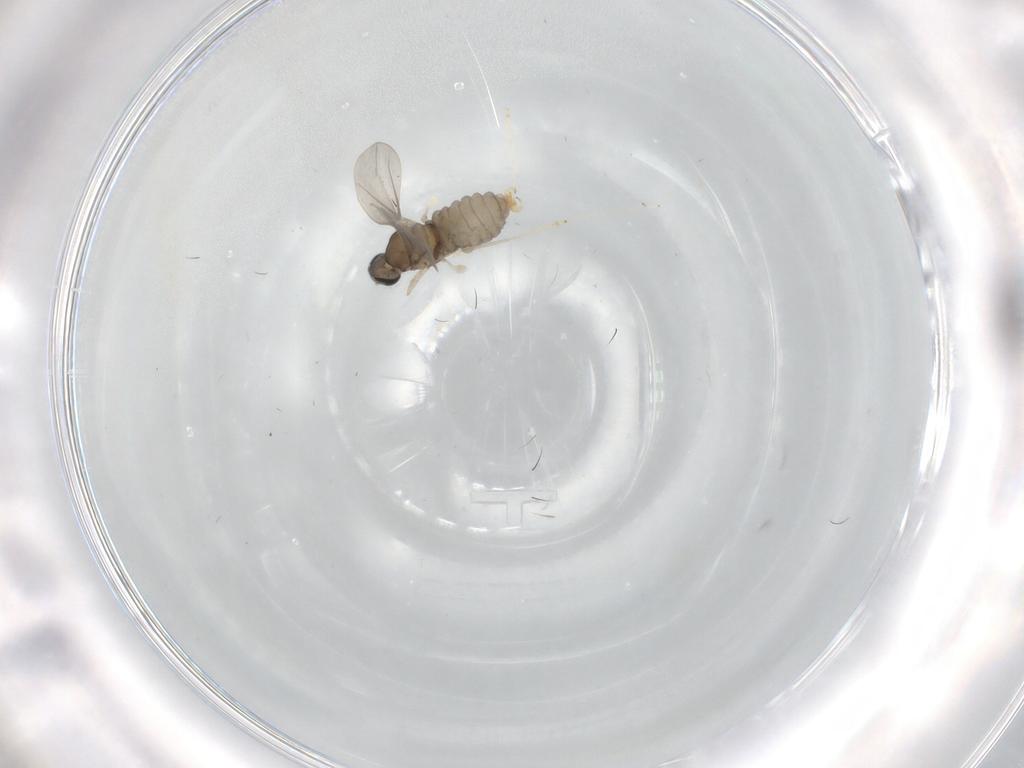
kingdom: Animalia
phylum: Arthropoda
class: Insecta
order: Diptera
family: Cecidomyiidae
